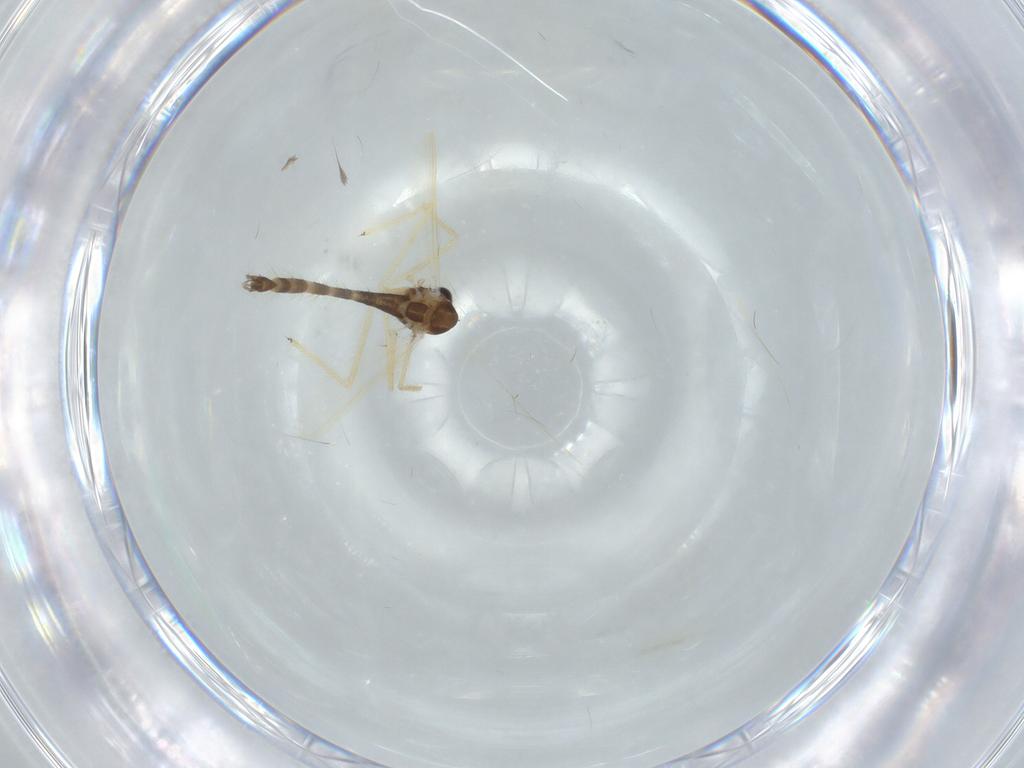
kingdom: Animalia
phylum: Arthropoda
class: Insecta
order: Diptera
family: Chironomidae
